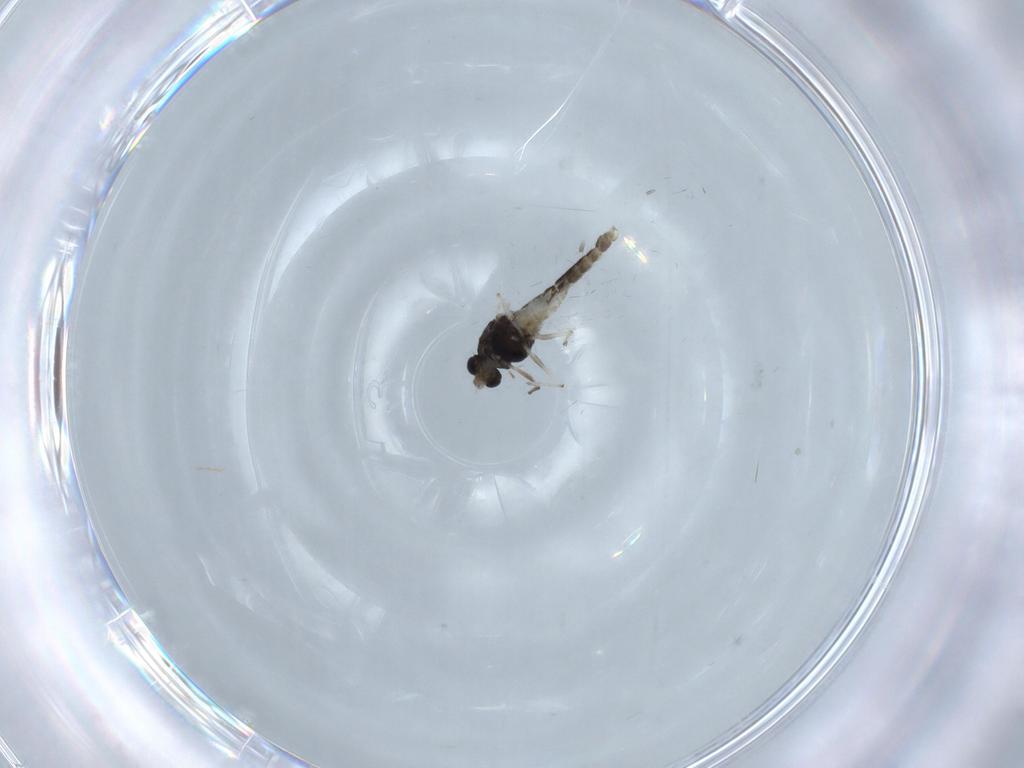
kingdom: Animalia
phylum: Arthropoda
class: Insecta
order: Diptera
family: Chironomidae
